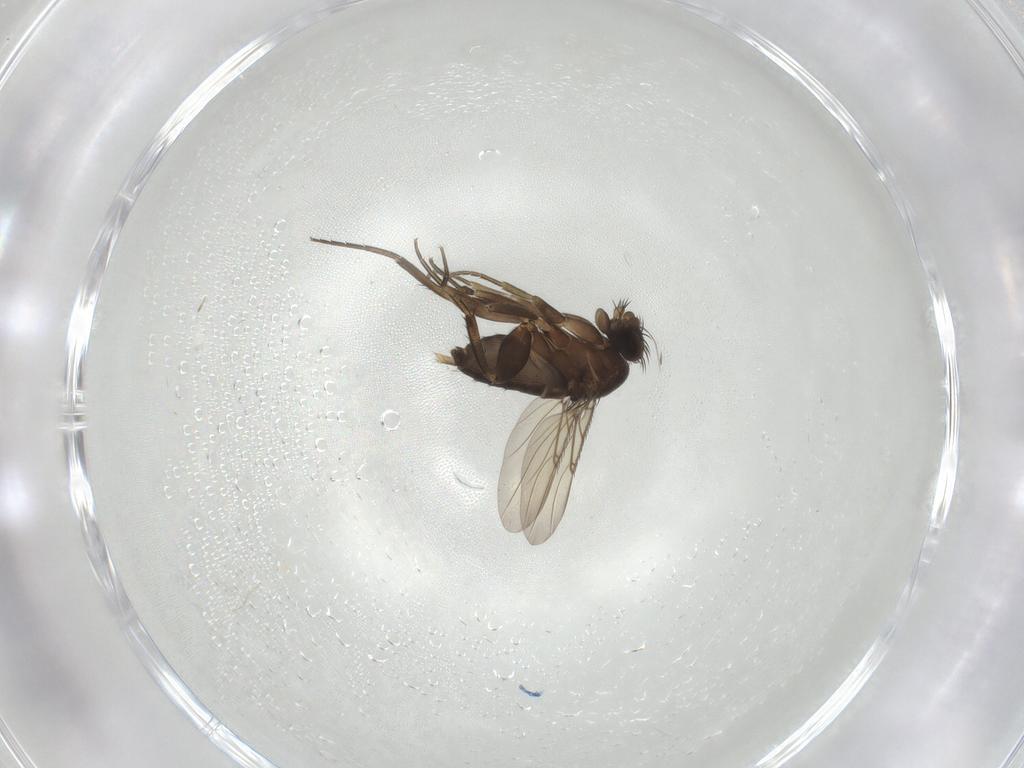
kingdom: Animalia
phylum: Arthropoda
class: Insecta
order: Diptera
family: Phoridae
